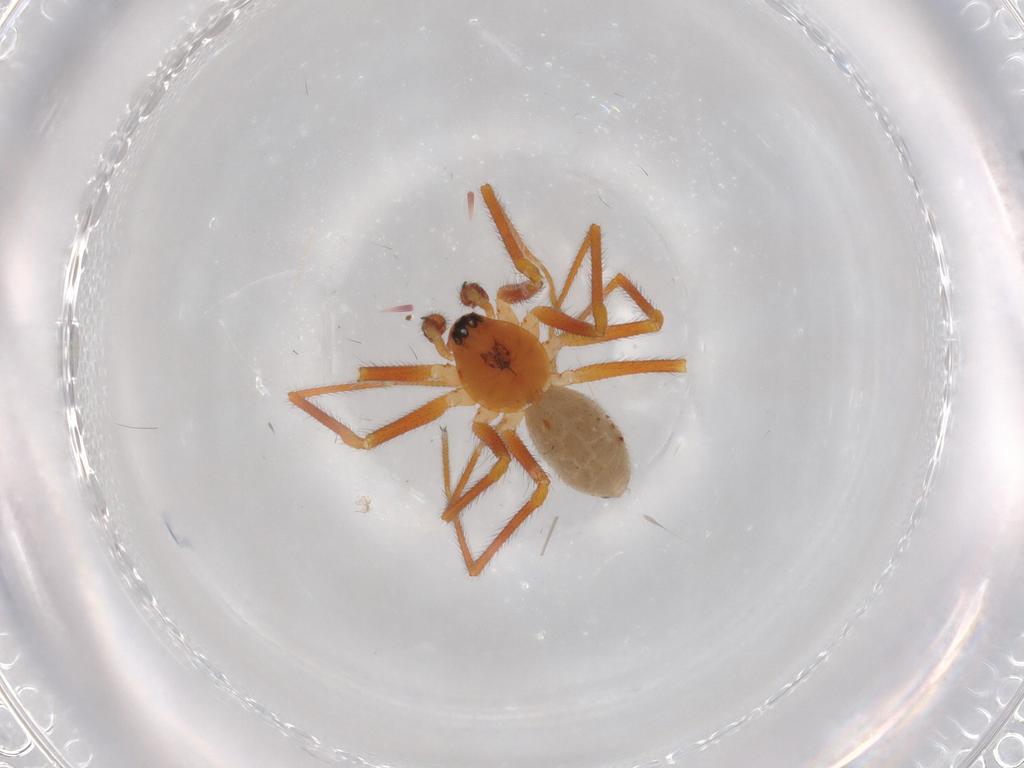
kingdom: Animalia
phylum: Arthropoda
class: Arachnida
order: Araneae
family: Linyphiidae
